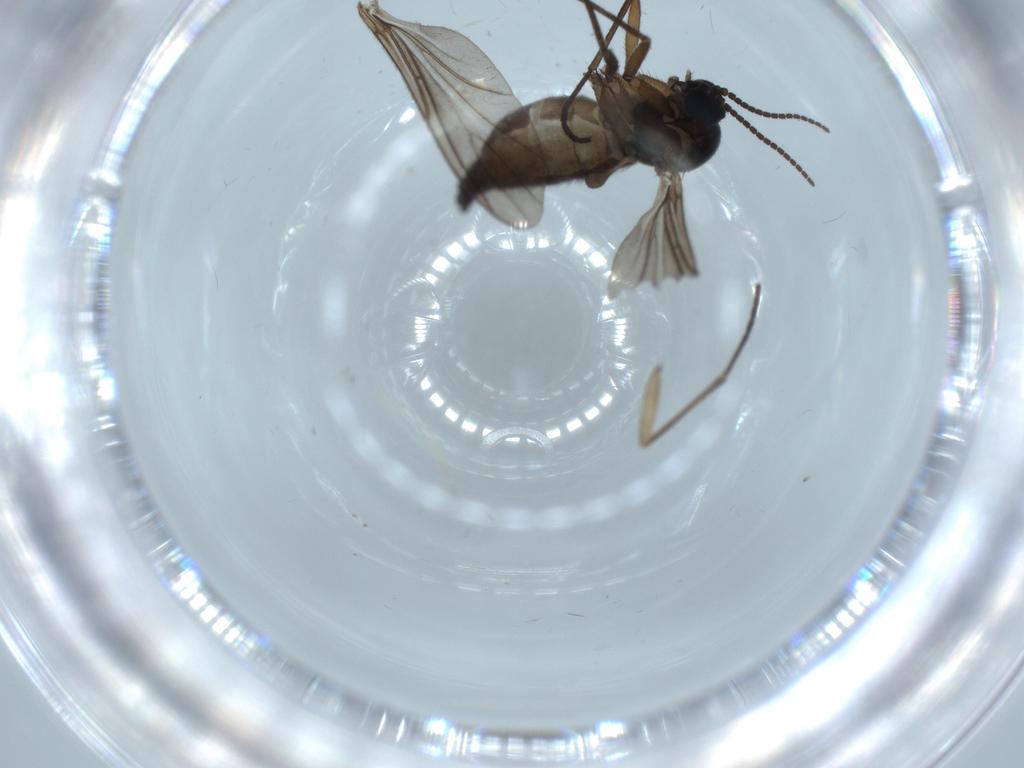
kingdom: Animalia
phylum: Arthropoda
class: Insecta
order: Diptera
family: Sciaridae
